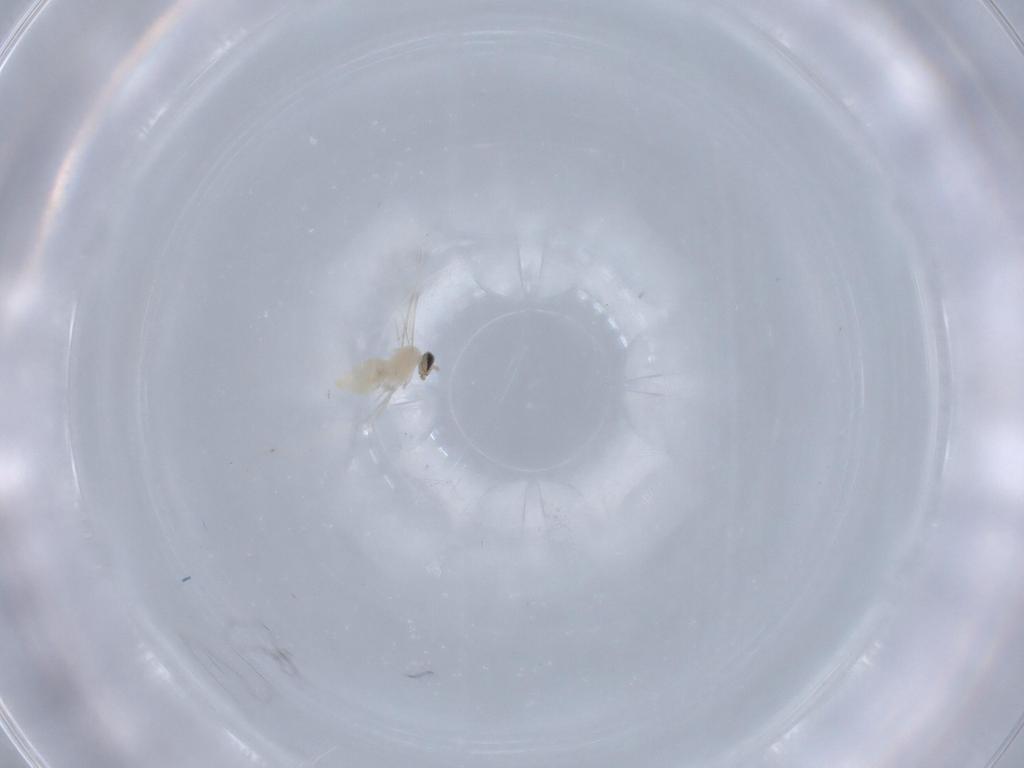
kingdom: Animalia
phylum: Arthropoda
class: Insecta
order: Diptera
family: Cecidomyiidae
